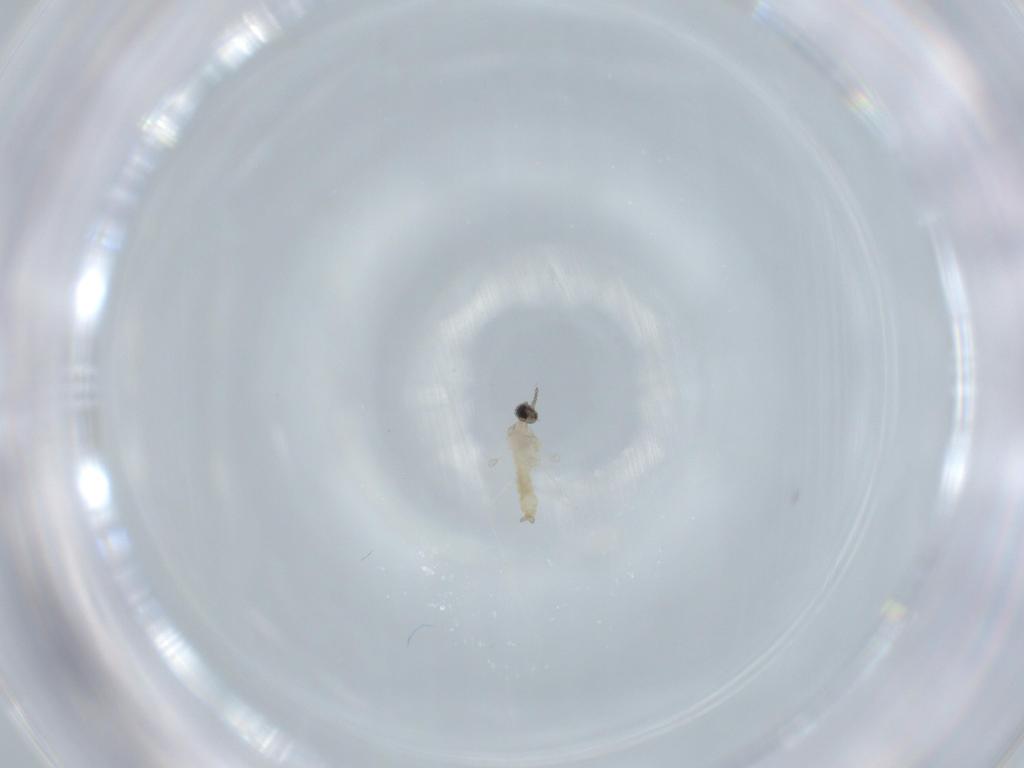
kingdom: Animalia
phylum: Arthropoda
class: Insecta
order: Diptera
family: Cecidomyiidae
